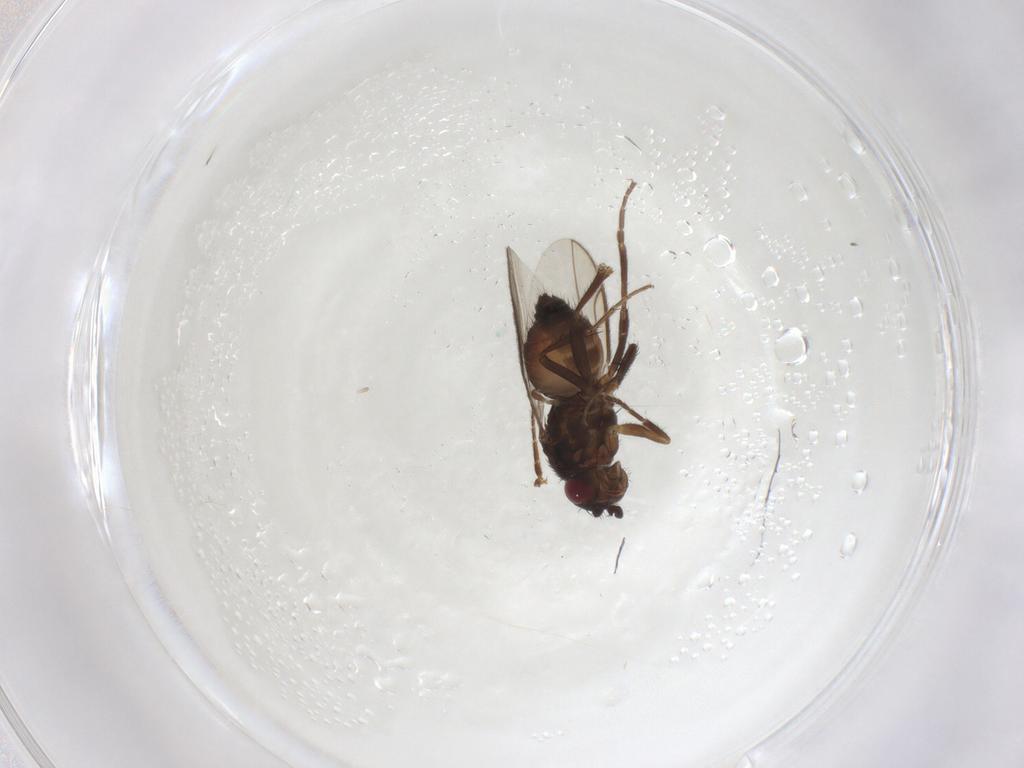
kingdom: Animalia
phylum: Arthropoda
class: Insecta
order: Diptera
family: Sphaeroceridae
